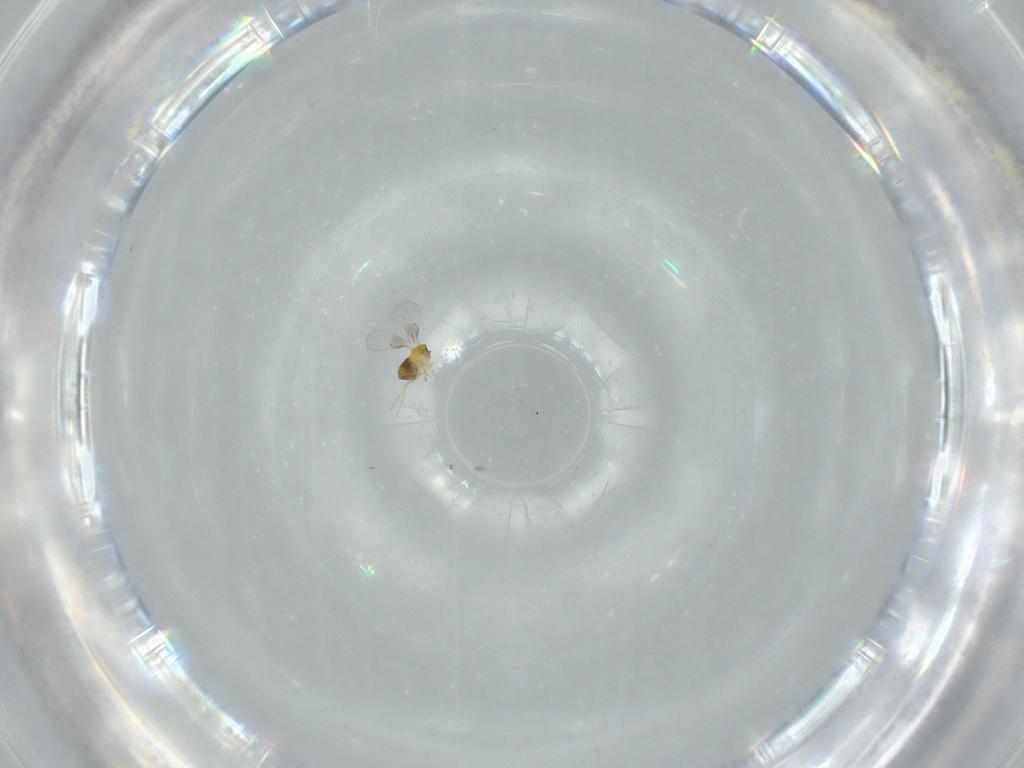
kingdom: Animalia
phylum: Arthropoda
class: Insecta
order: Hymenoptera
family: Trichogrammatidae
